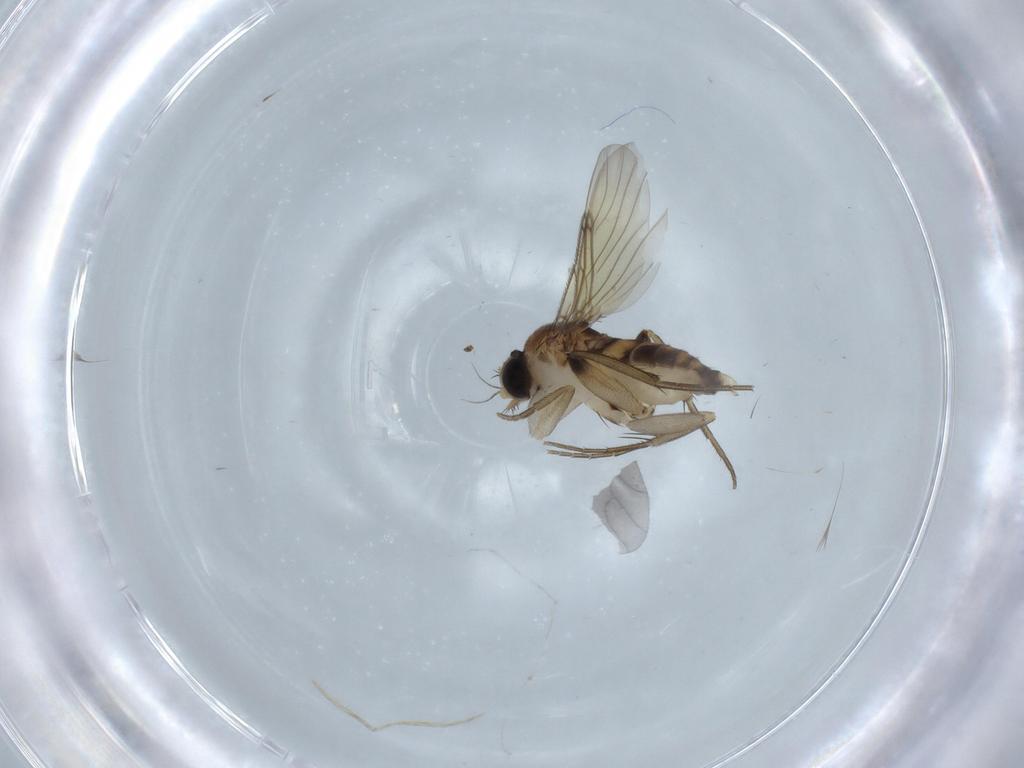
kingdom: Animalia
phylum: Arthropoda
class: Insecta
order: Diptera
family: Phoridae
